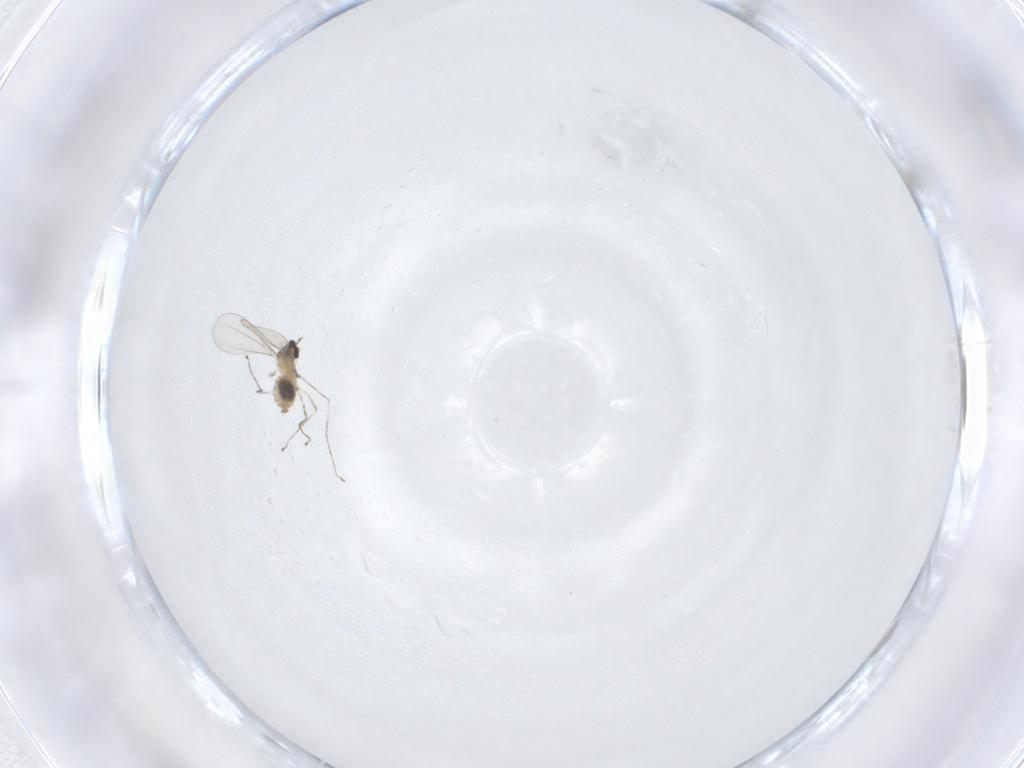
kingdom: Animalia
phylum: Arthropoda
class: Insecta
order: Diptera
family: Cecidomyiidae
